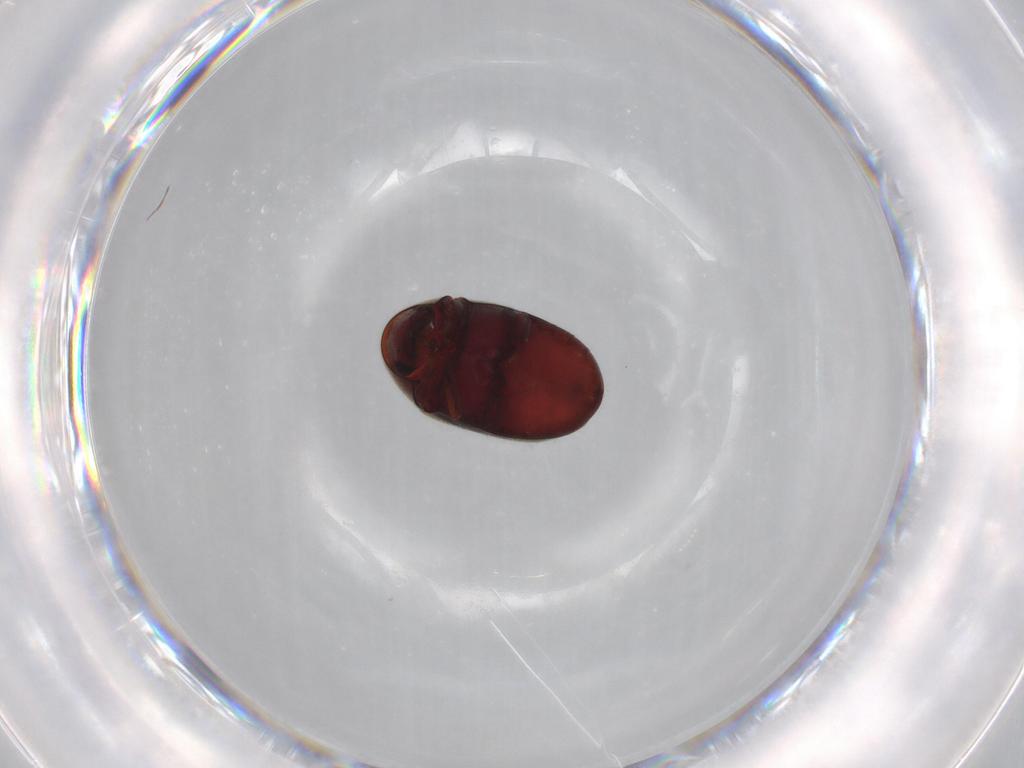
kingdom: Animalia
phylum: Arthropoda
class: Insecta
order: Coleoptera
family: Ptinidae
